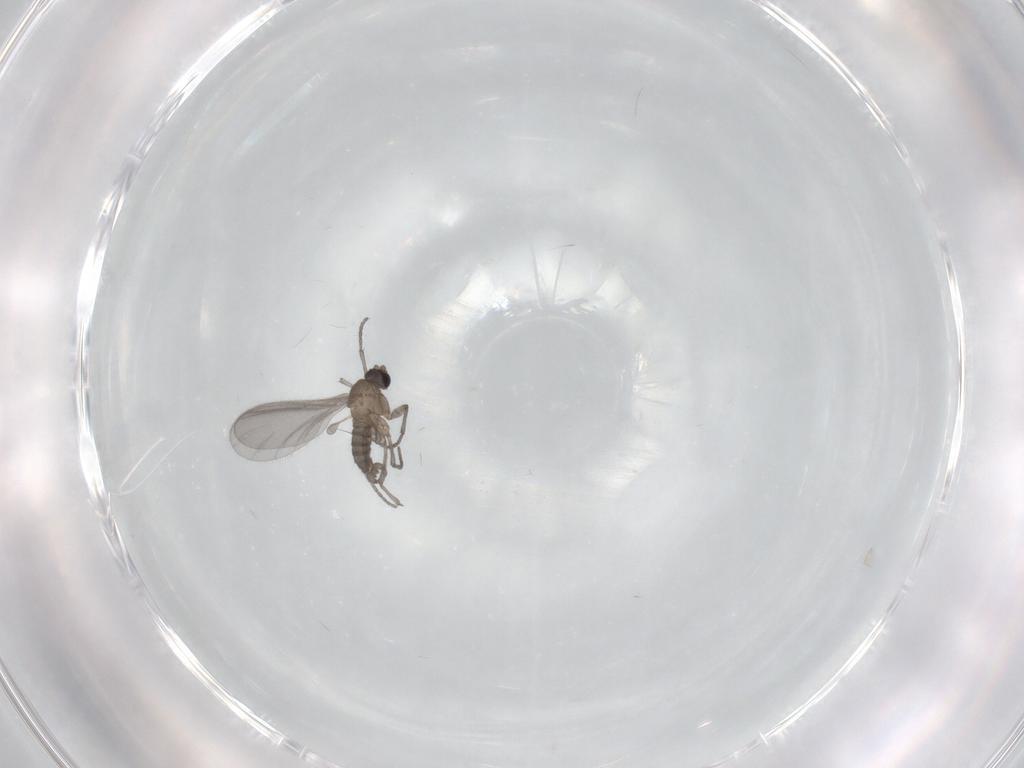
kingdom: Animalia
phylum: Arthropoda
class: Insecta
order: Diptera
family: Sciaridae
